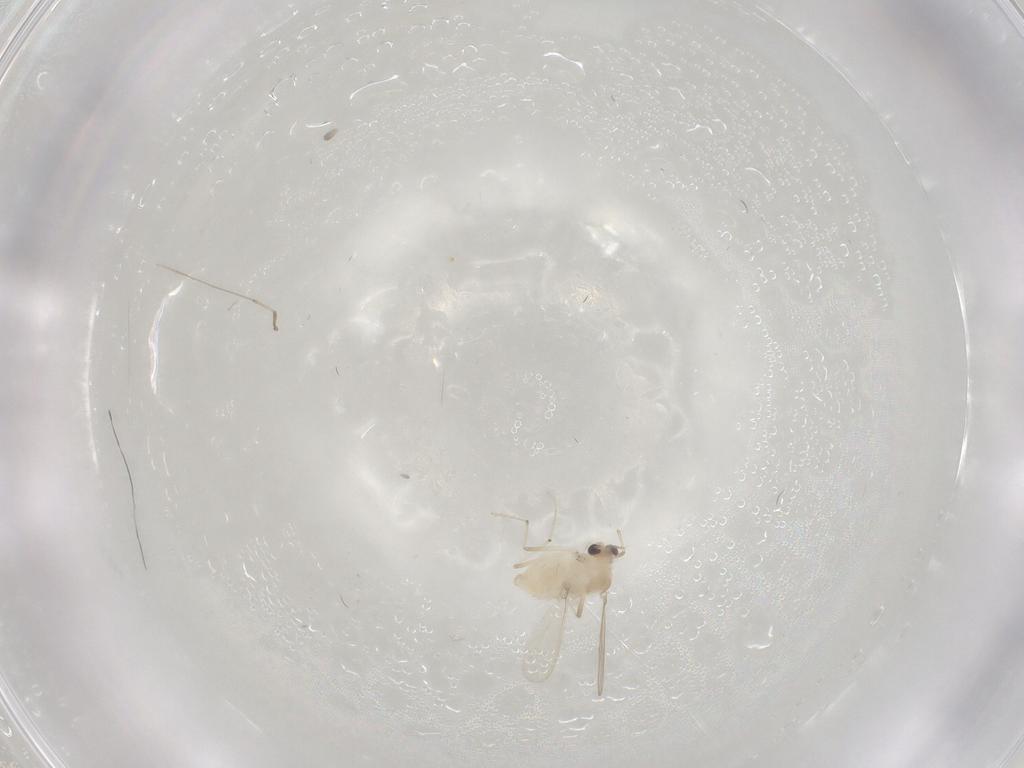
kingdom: Animalia
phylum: Arthropoda
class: Insecta
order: Diptera
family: Chironomidae
